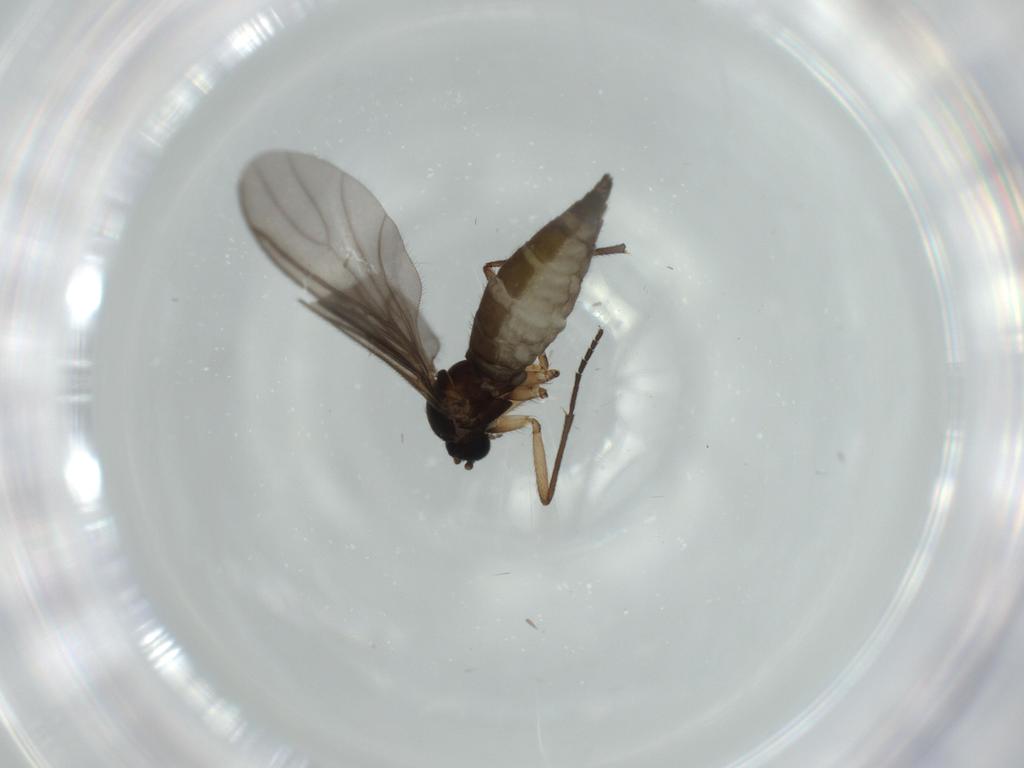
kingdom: Animalia
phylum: Arthropoda
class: Insecta
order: Diptera
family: Sciaridae
